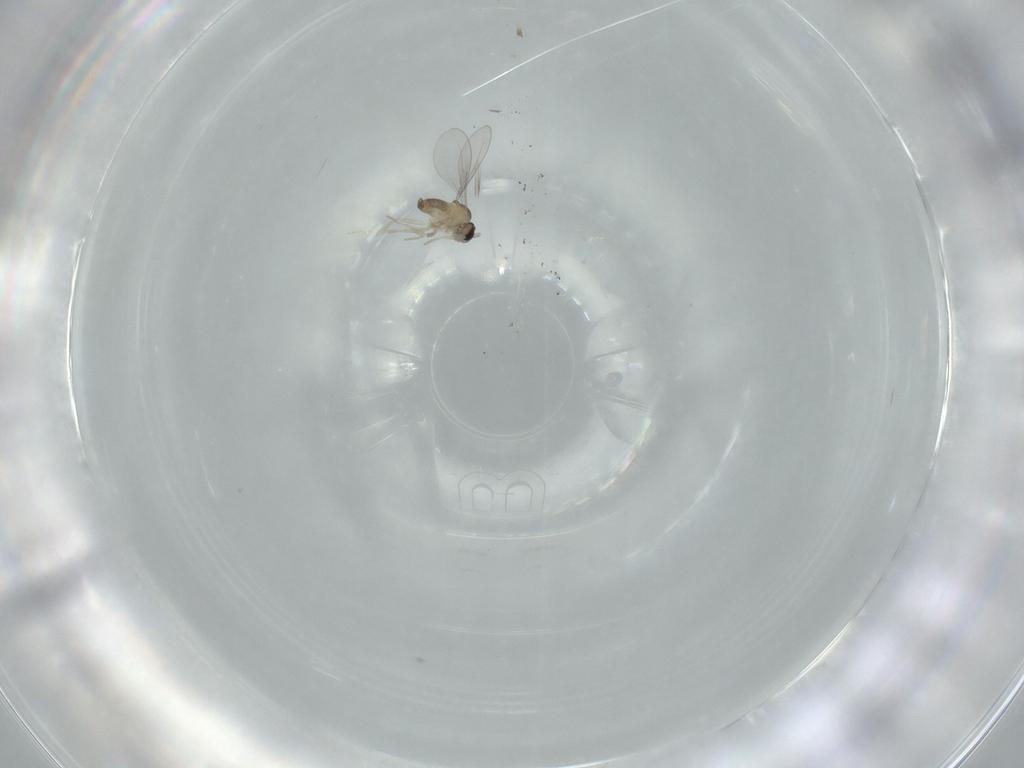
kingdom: Animalia
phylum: Arthropoda
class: Insecta
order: Diptera
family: Cecidomyiidae
